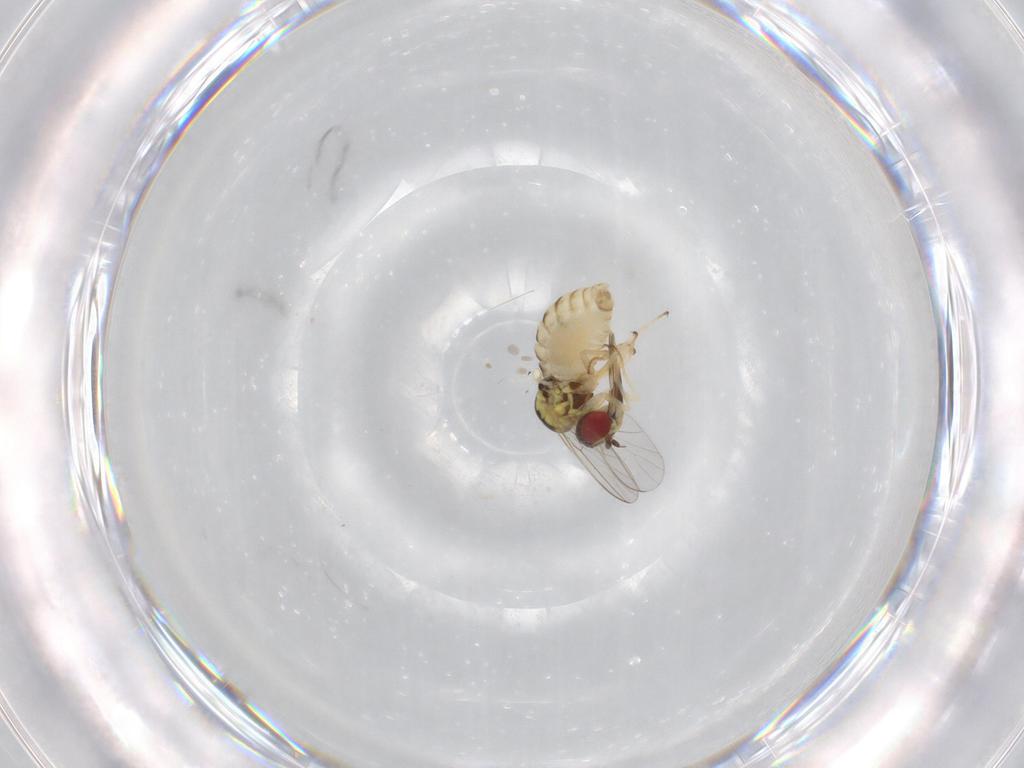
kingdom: Animalia
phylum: Arthropoda
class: Insecta
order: Diptera
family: Bombyliidae
